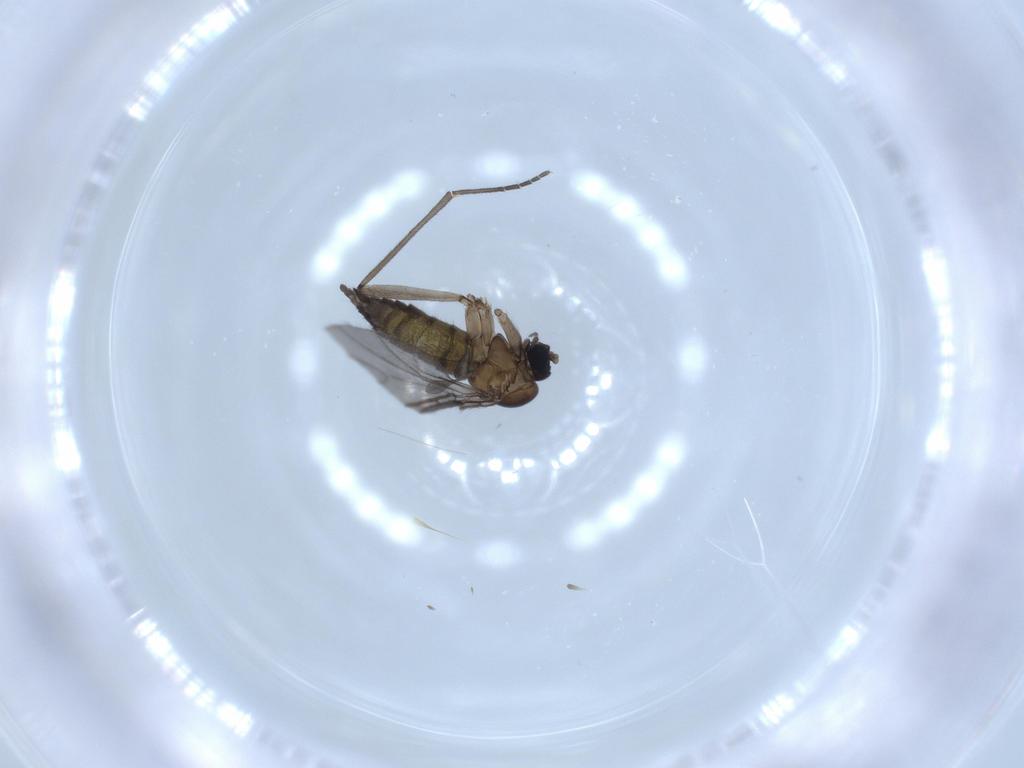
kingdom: Animalia
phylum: Arthropoda
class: Insecta
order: Diptera
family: Sciaridae
